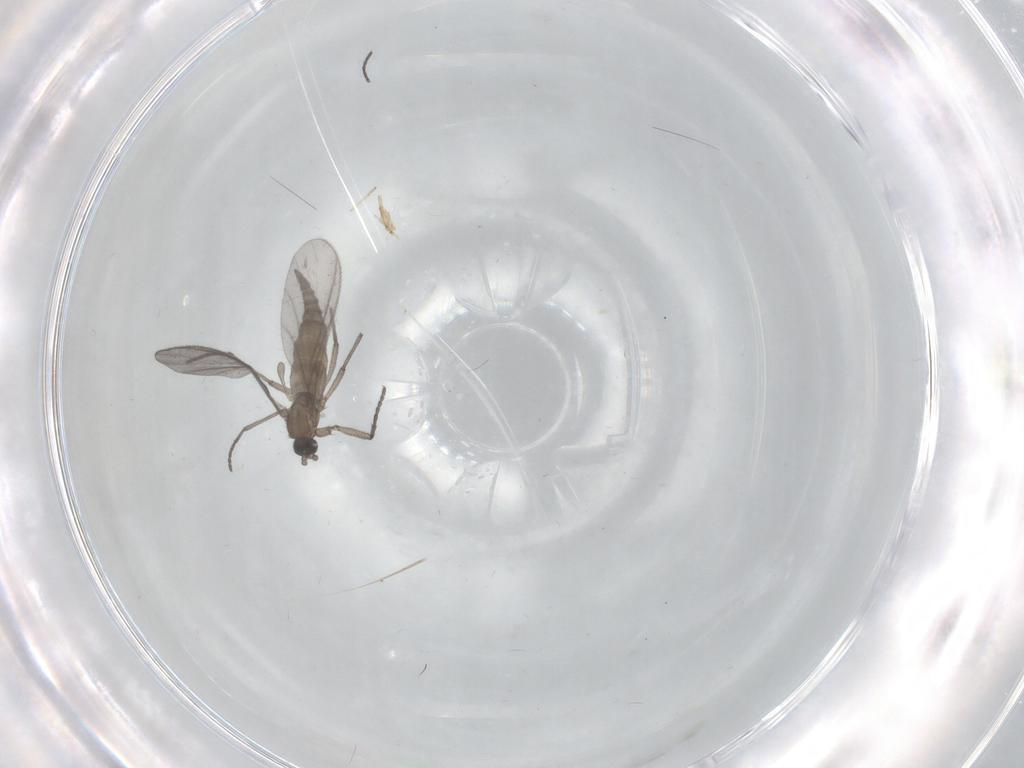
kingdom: Animalia
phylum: Arthropoda
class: Insecta
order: Diptera
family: Sciaridae
